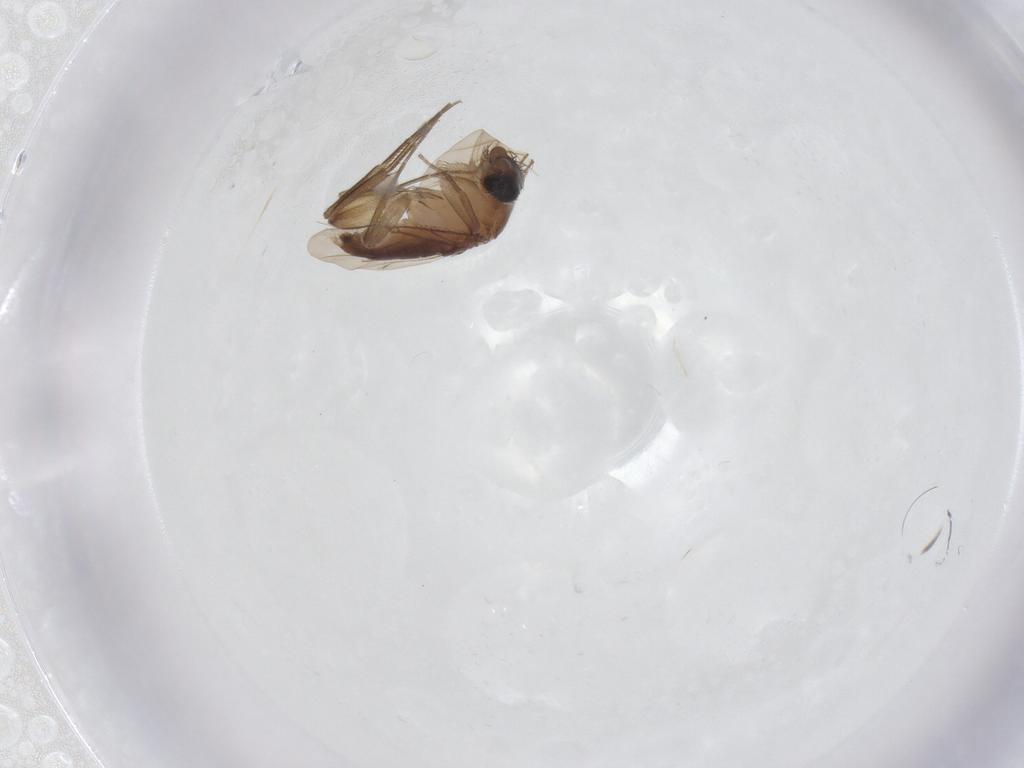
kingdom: Animalia
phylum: Arthropoda
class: Insecta
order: Diptera
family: Phoridae
